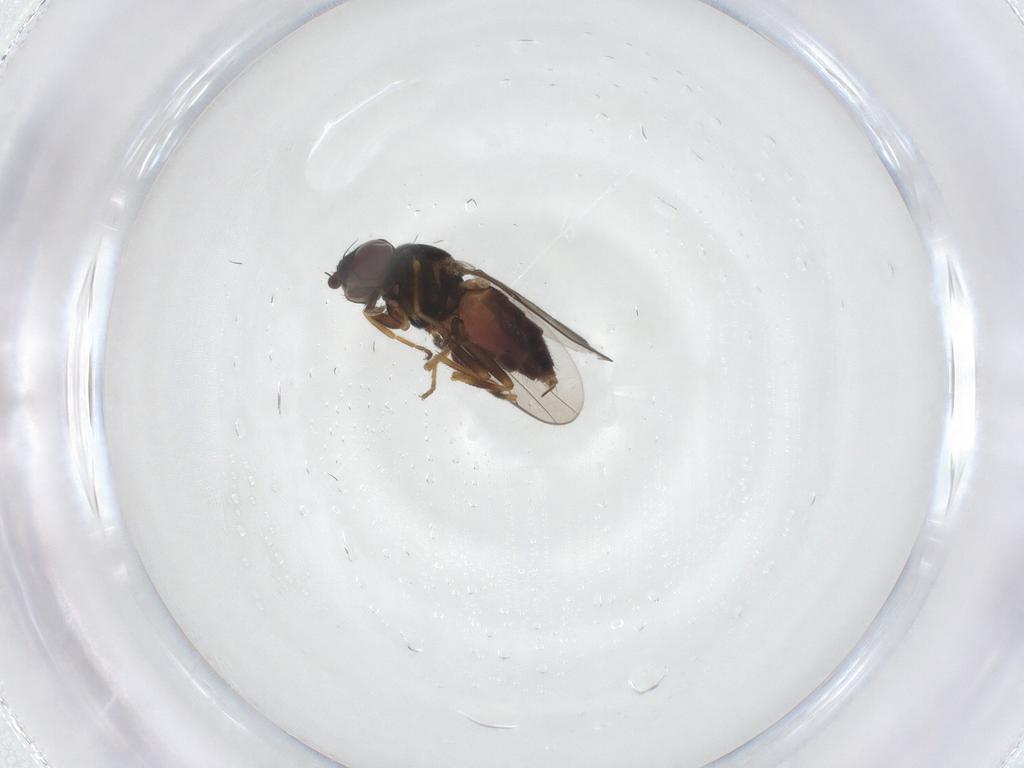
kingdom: Animalia
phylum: Arthropoda
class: Insecta
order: Diptera
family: Chloropidae
